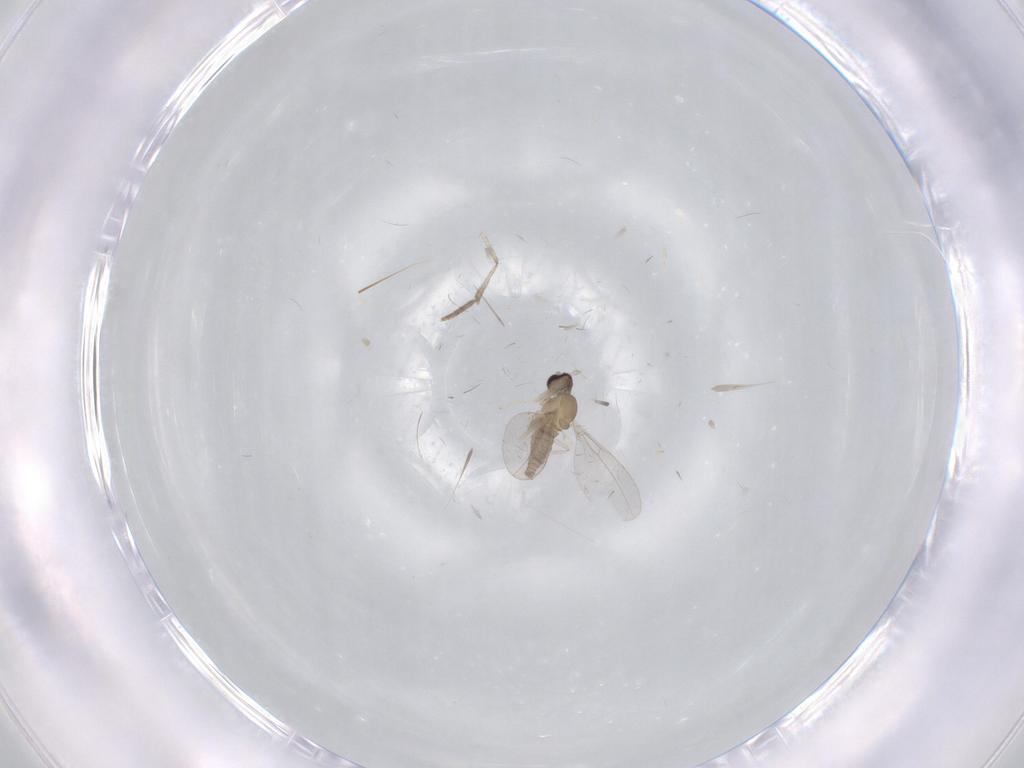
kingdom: Animalia
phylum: Arthropoda
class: Insecta
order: Diptera
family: Cecidomyiidae
